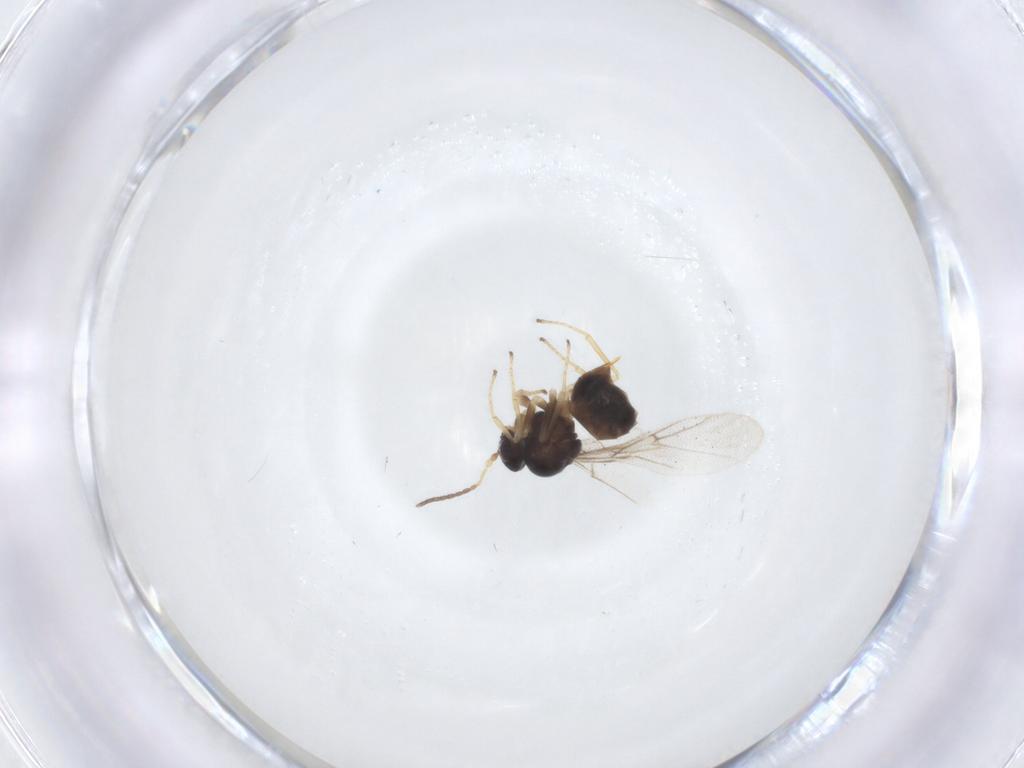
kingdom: Animalia
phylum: Arthropoda
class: Insecta
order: Hymenoptera
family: Cynipidae
